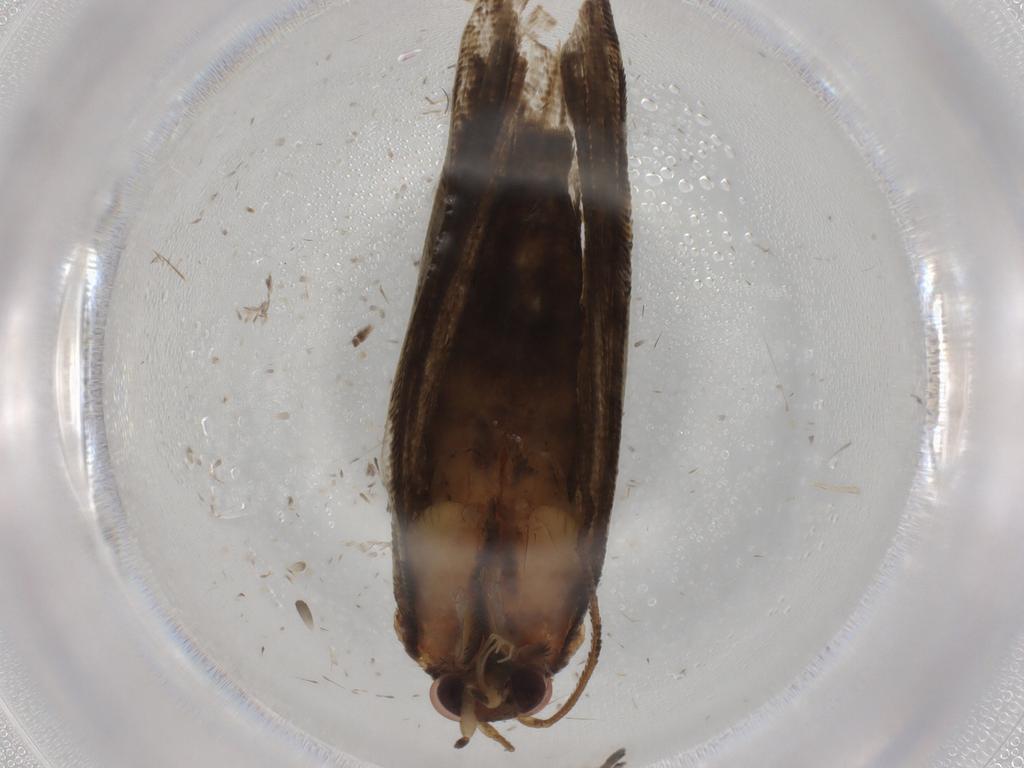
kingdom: Animalia
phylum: Arthropoda
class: Insecta
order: Lepidoptera
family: Tortricidae
